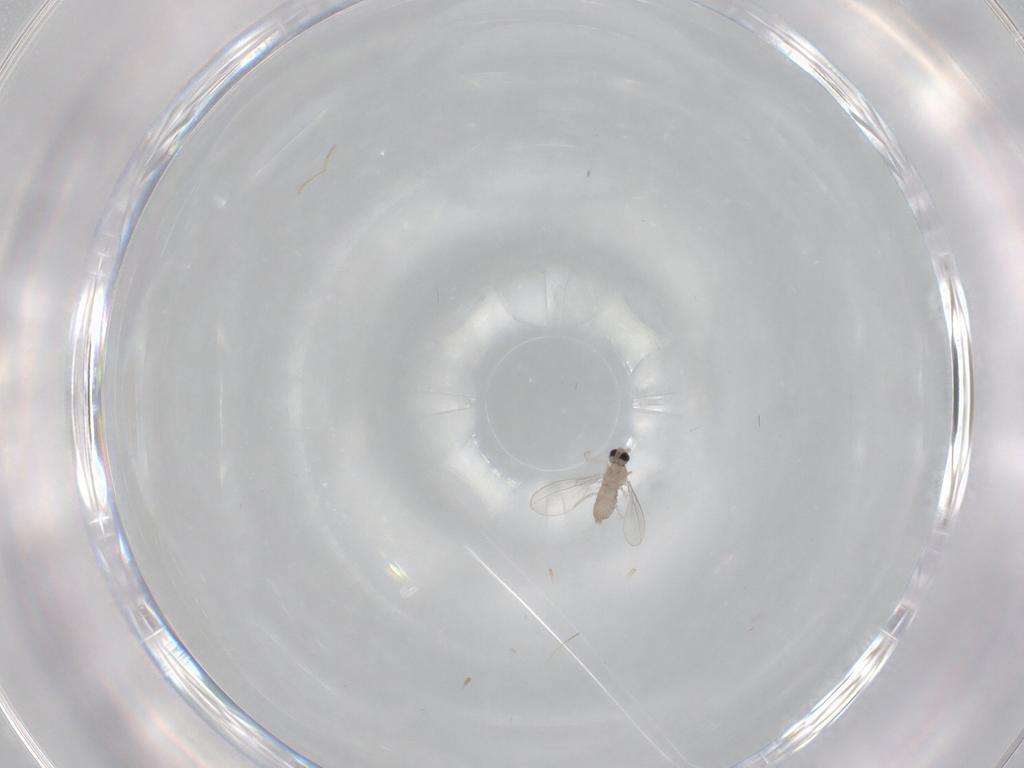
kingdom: Animalia
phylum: Arthropoda
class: Insecta
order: Diptera
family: Cecidomyiidae
